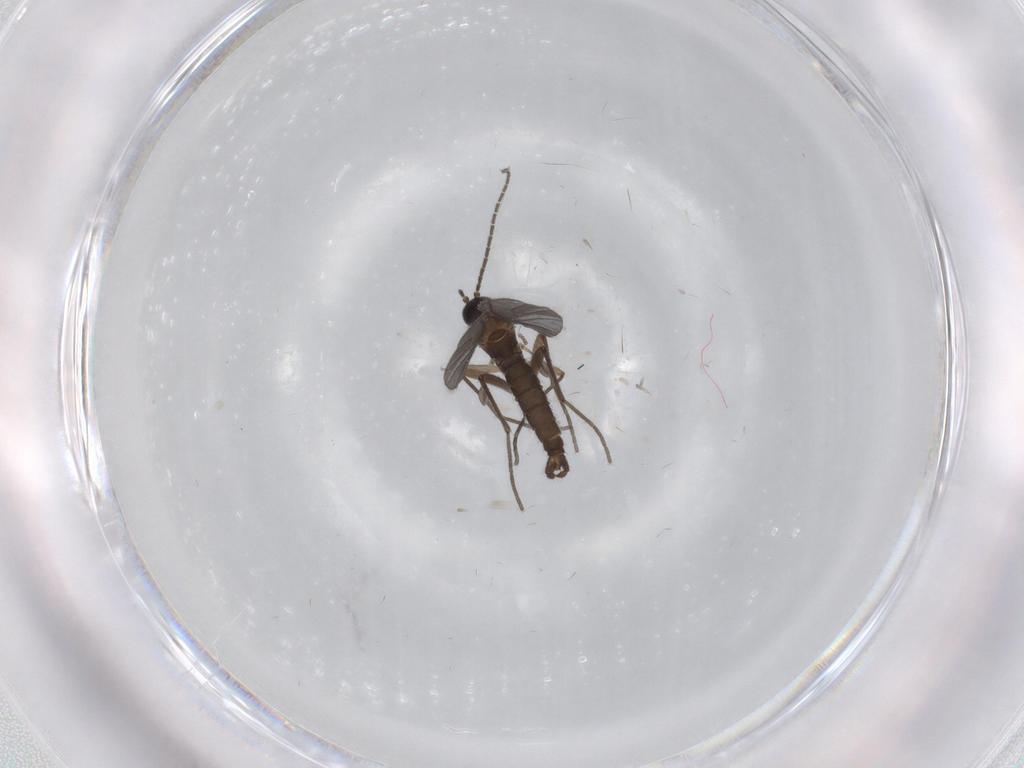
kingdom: Animalia
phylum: Arthropoda
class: Insecta
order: Diptera
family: Sciaridae
